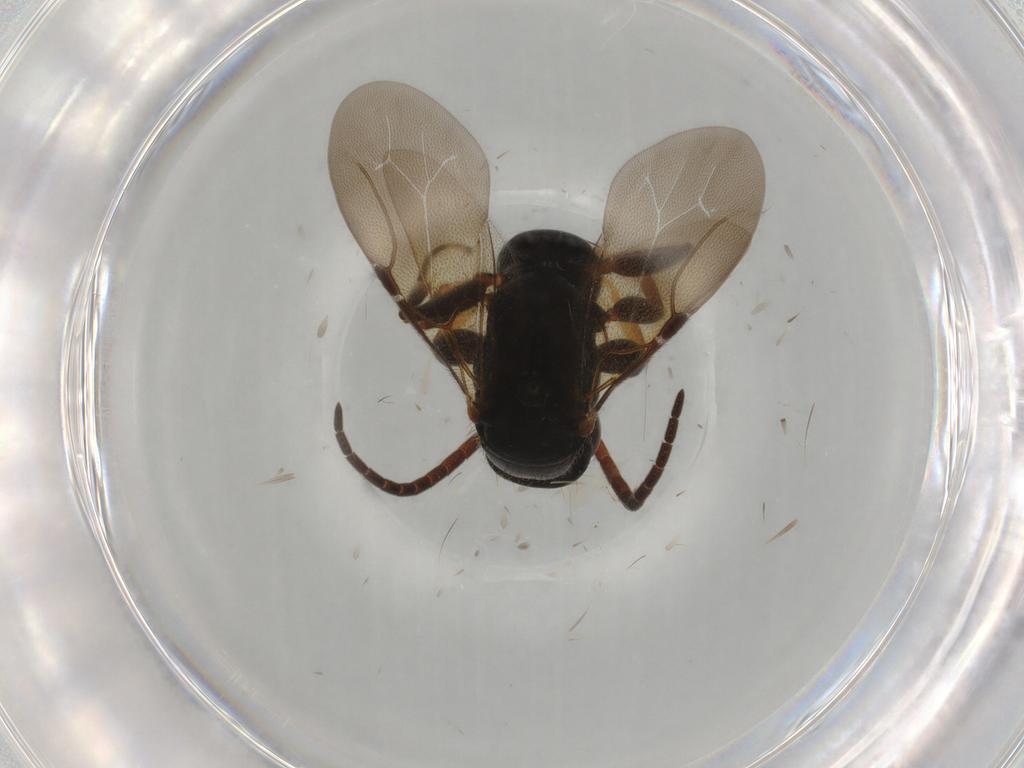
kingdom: Animalia
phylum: Arthropoda
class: Insecta
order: Hymenoptera
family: Bethylidae
